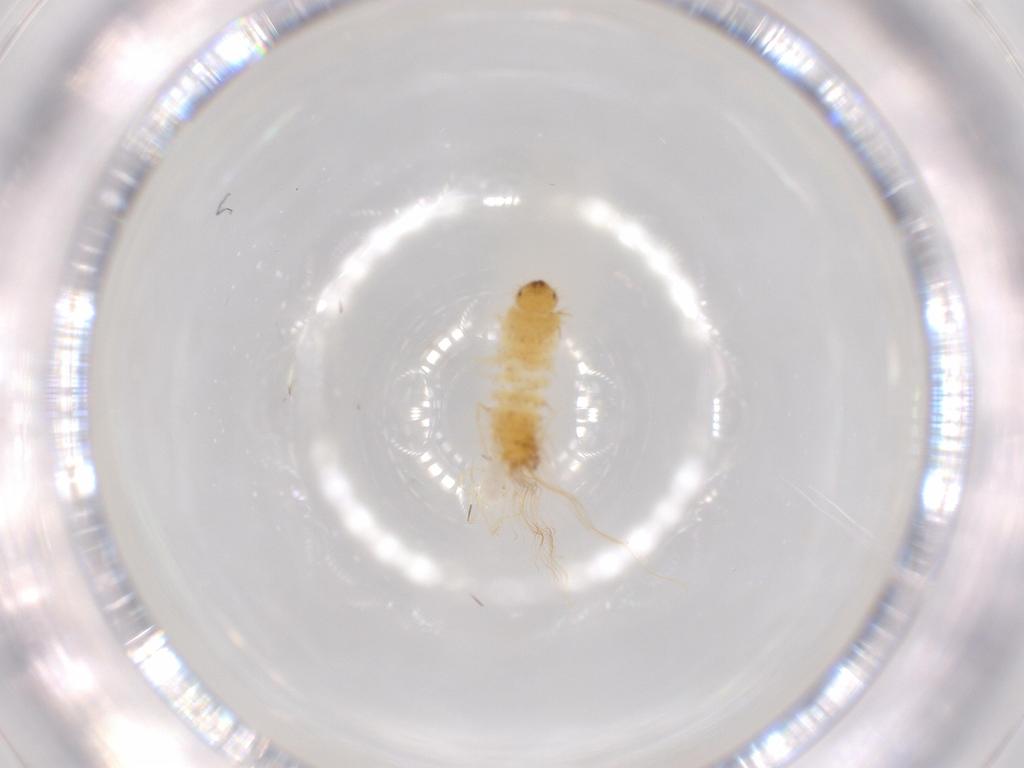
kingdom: Animalia
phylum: Arthropoda
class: Insecta
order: Coleoptera
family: Dermestidae
